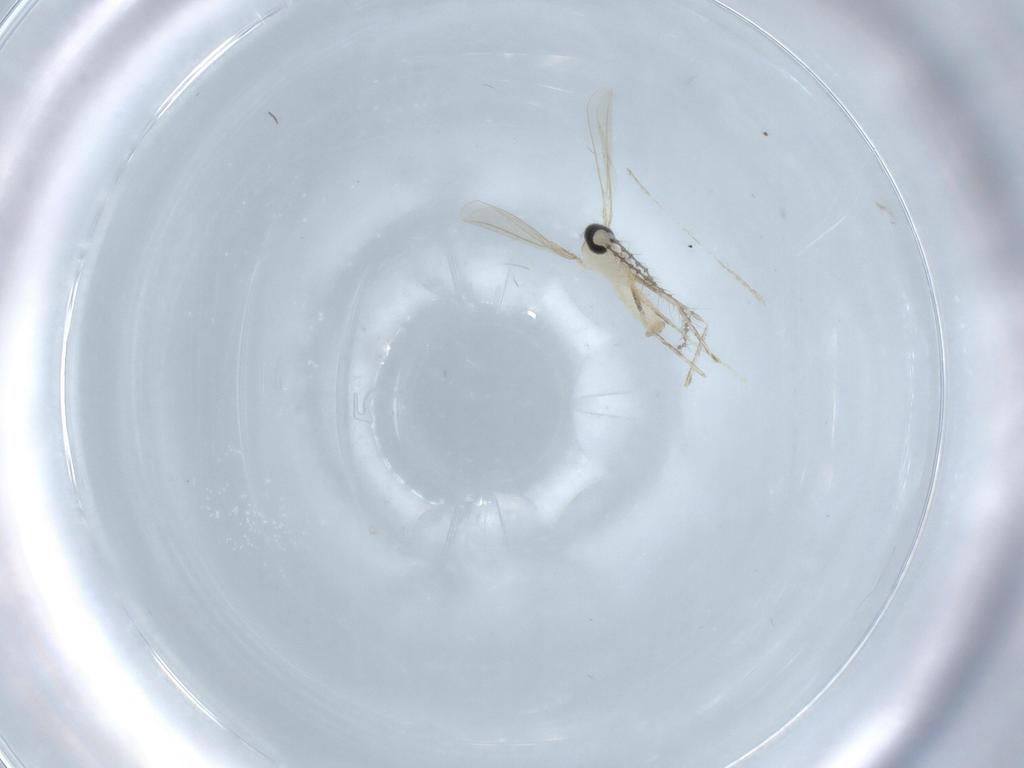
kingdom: Animalia
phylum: Arthropoda
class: Insecta
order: Diptera
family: Cecidomyiidae
